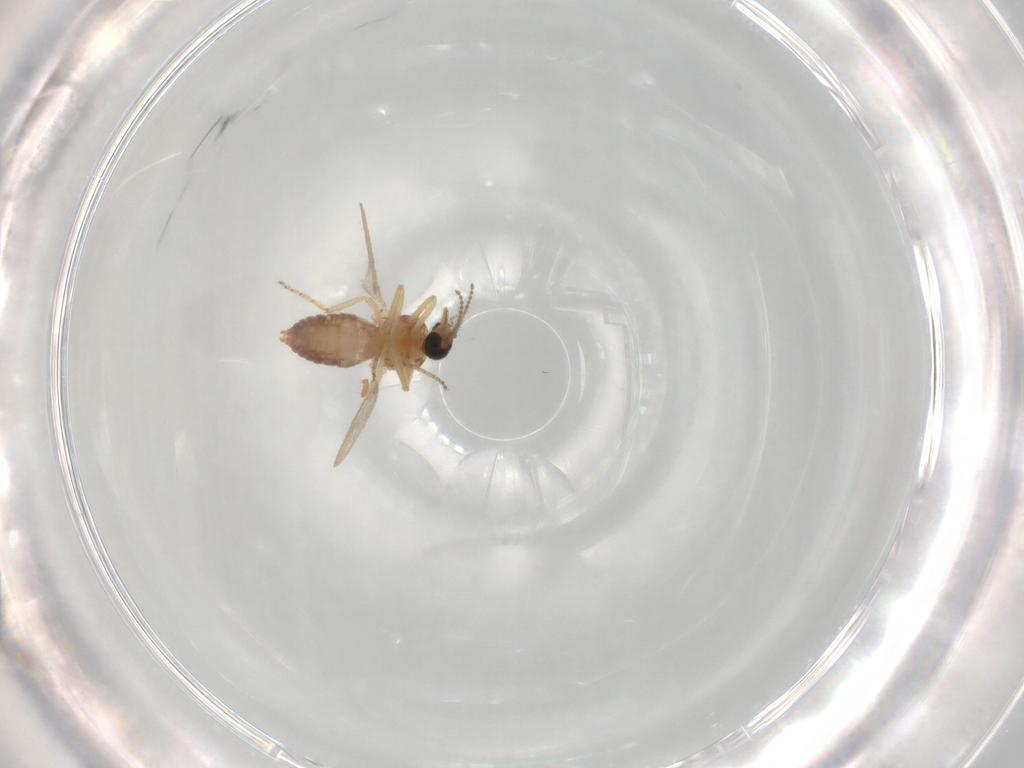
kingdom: Animalia
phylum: Arthropoda
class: Insecta
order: Diptera
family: Ceratopogonidae
